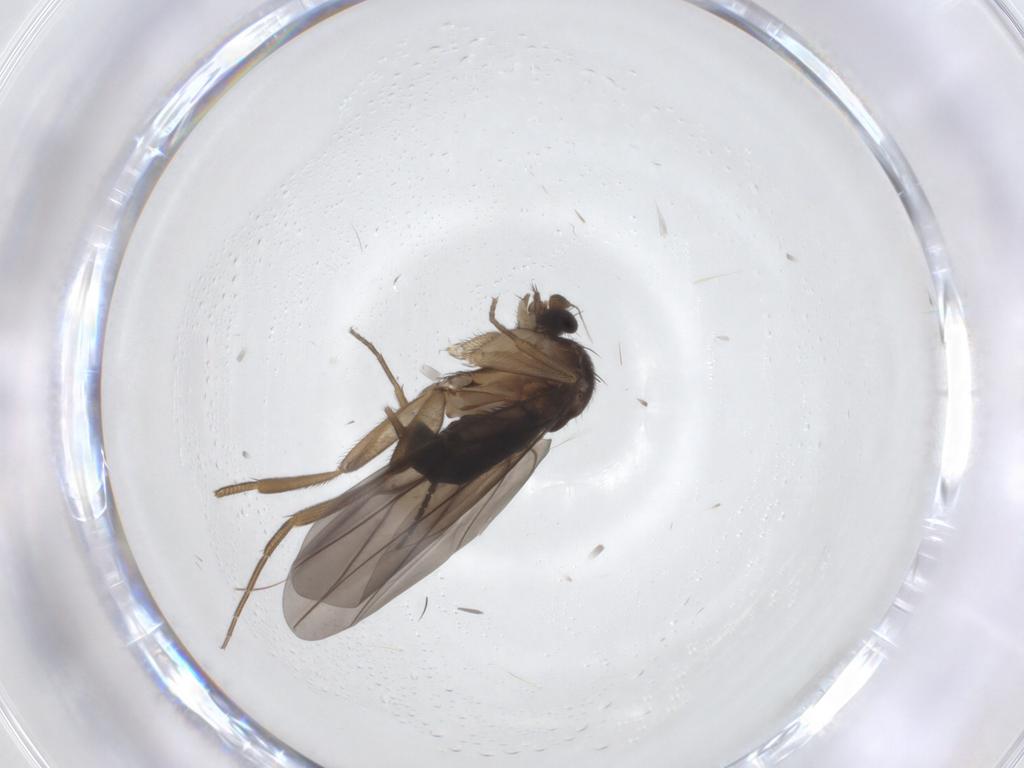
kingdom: Animalia
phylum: Arthropoda
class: Insecta
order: Diptera
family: Phoridae
